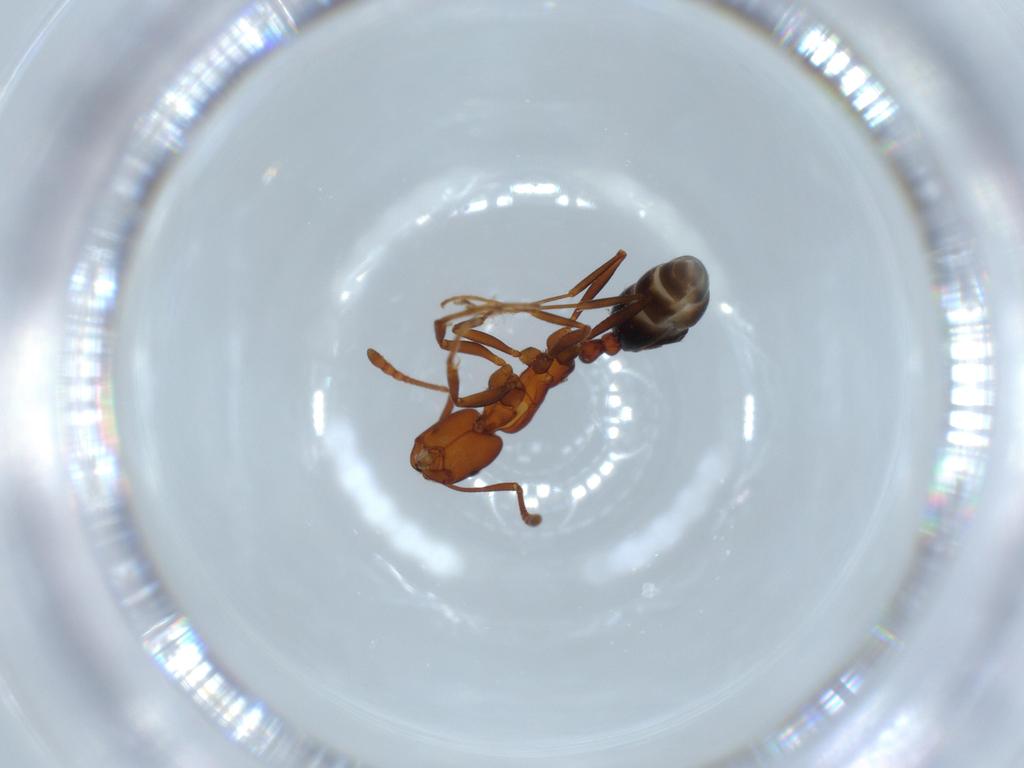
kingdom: Animalia
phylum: Arthropoda
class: Insecta
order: Hymenoptera
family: Formicidae
